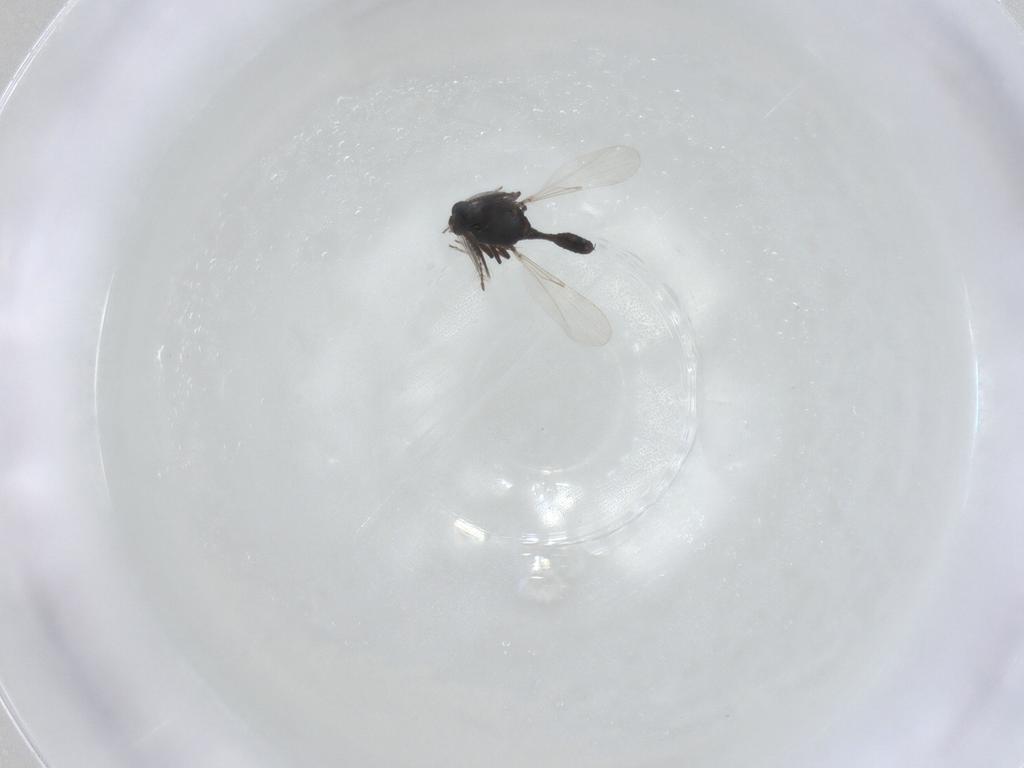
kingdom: Animalia
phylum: Arthropoda
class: Insecta
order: Diptera
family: Ceratopogonidae
